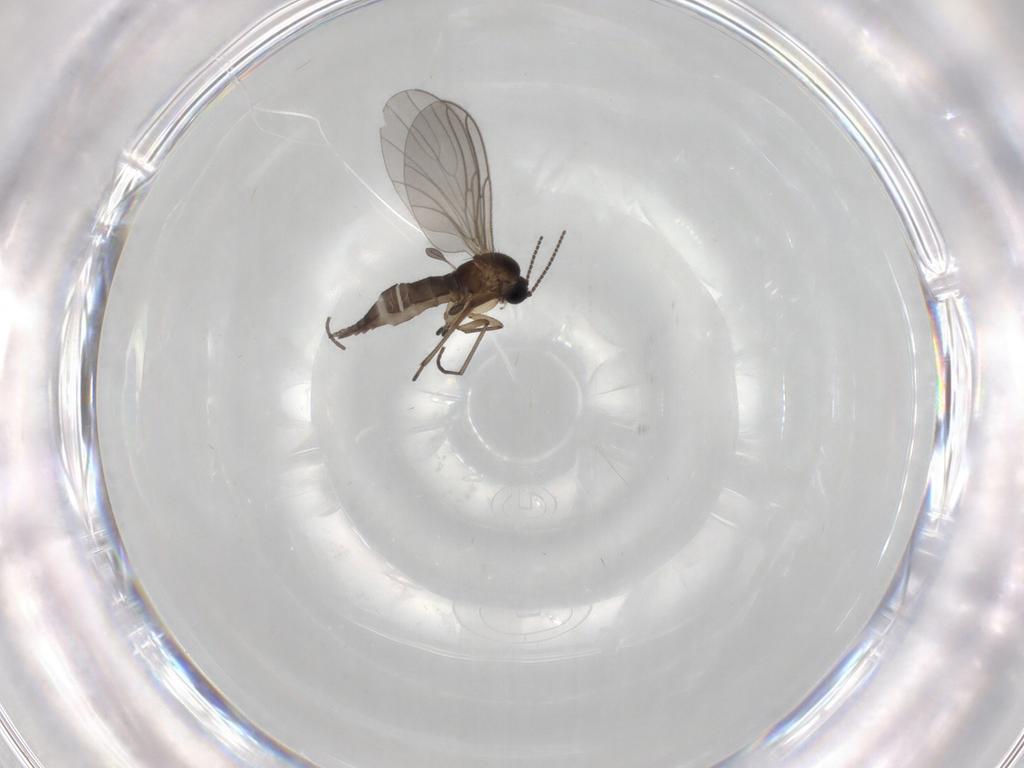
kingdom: Animalia
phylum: Arthropoda
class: Insecta
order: Diptera
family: Sciaridae
